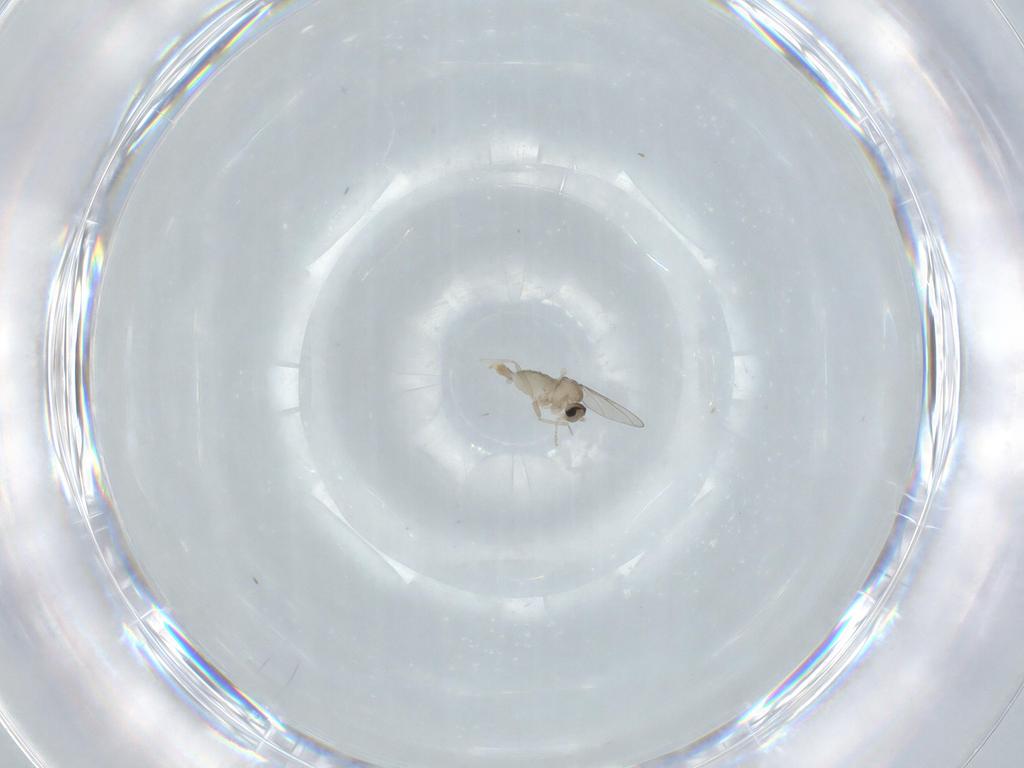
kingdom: Animalia
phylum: Arthropoda
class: Insecta
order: Diptera
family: Cecidomyiidae
